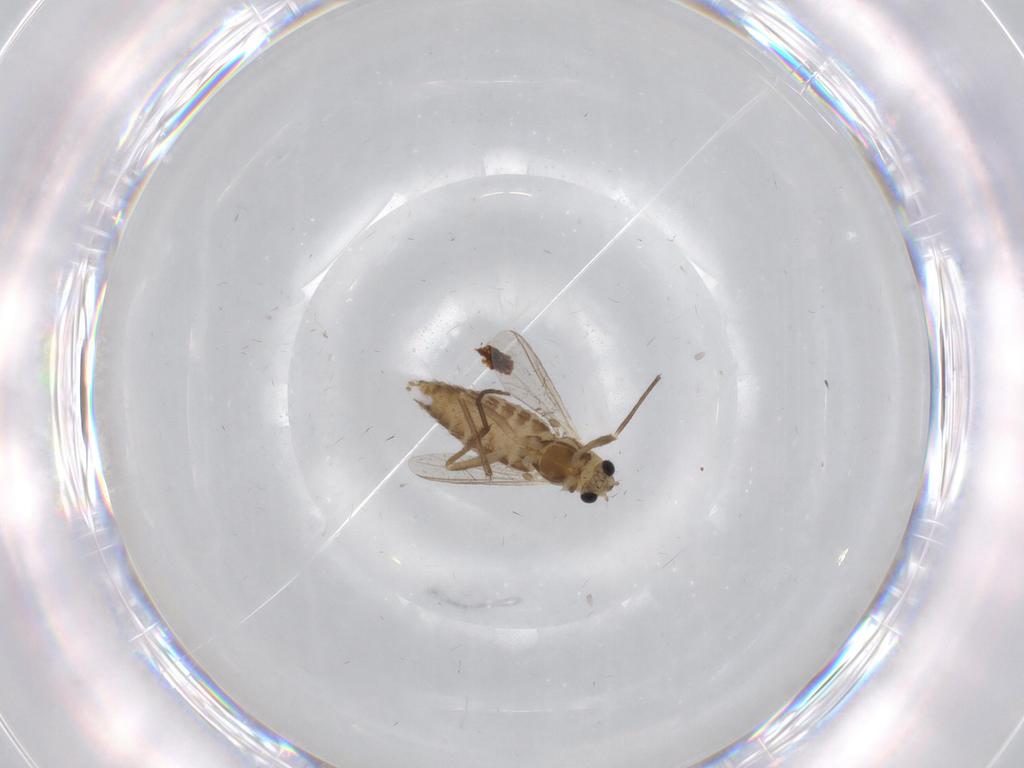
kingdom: Animalia
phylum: Arthropoda
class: Insecta
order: Diptera
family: Chironomidae
